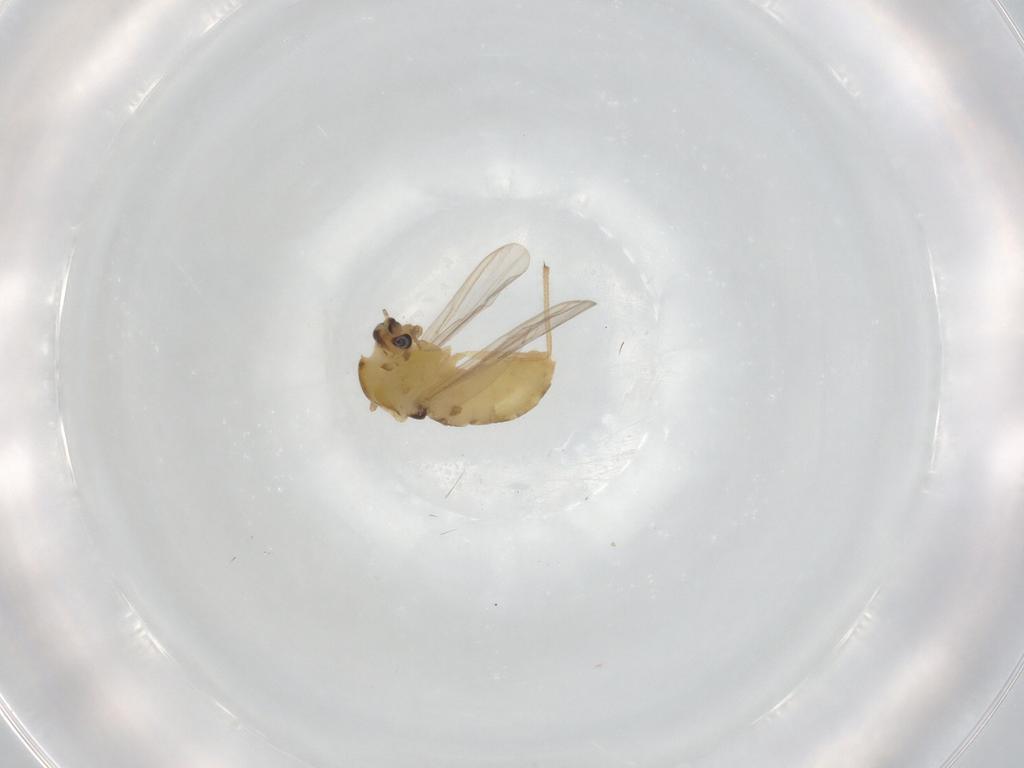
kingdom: Animalia
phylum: Arthropoda
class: Insecta
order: Diptera
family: Chironomidae
